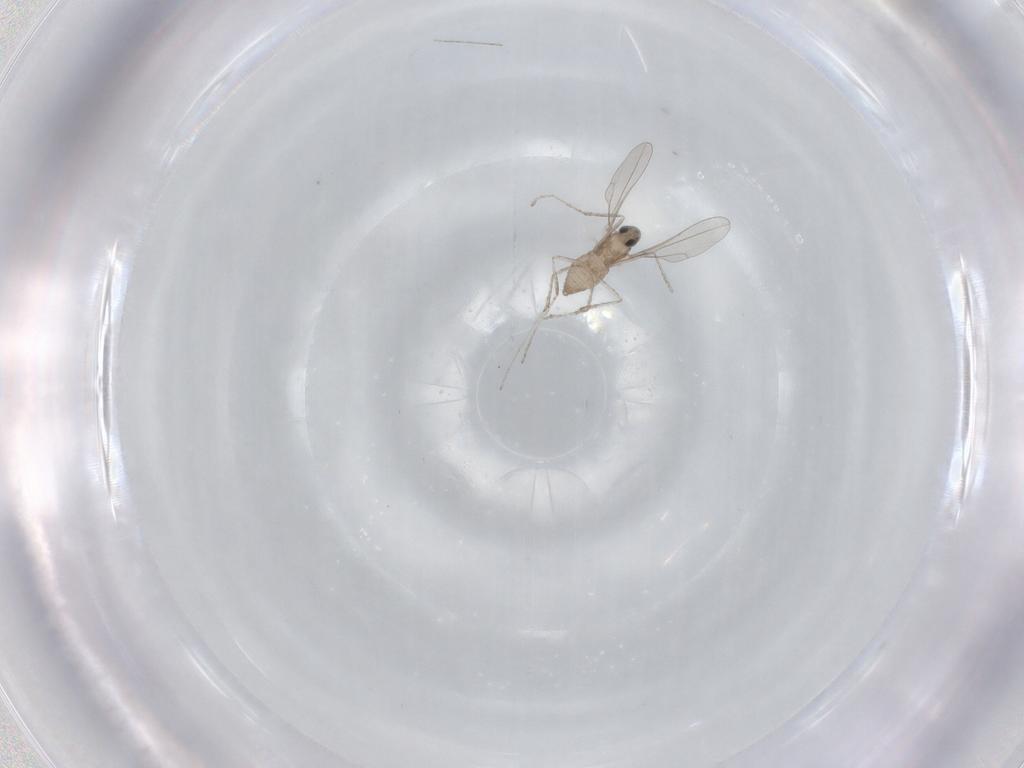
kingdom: Animalia
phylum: Arthropoda
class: Insecta
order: Diptera
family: Cecidomyiidae
